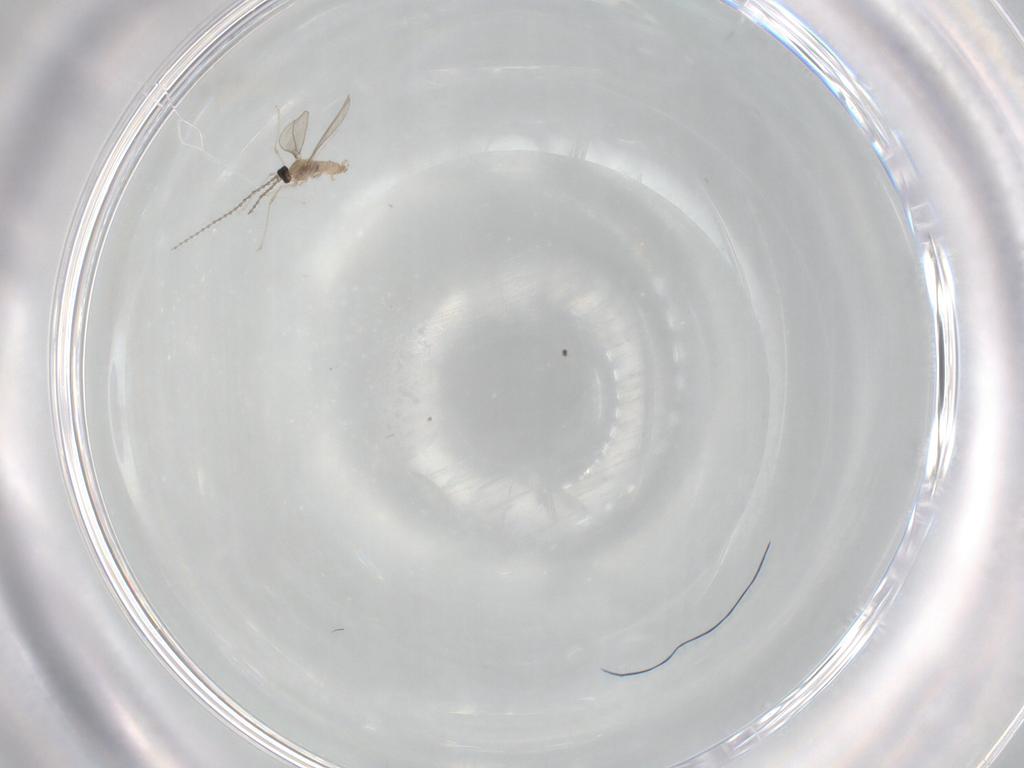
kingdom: Animalia
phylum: Arthropoda
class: Insecta
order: Diptera
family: Cecidomyiidae
